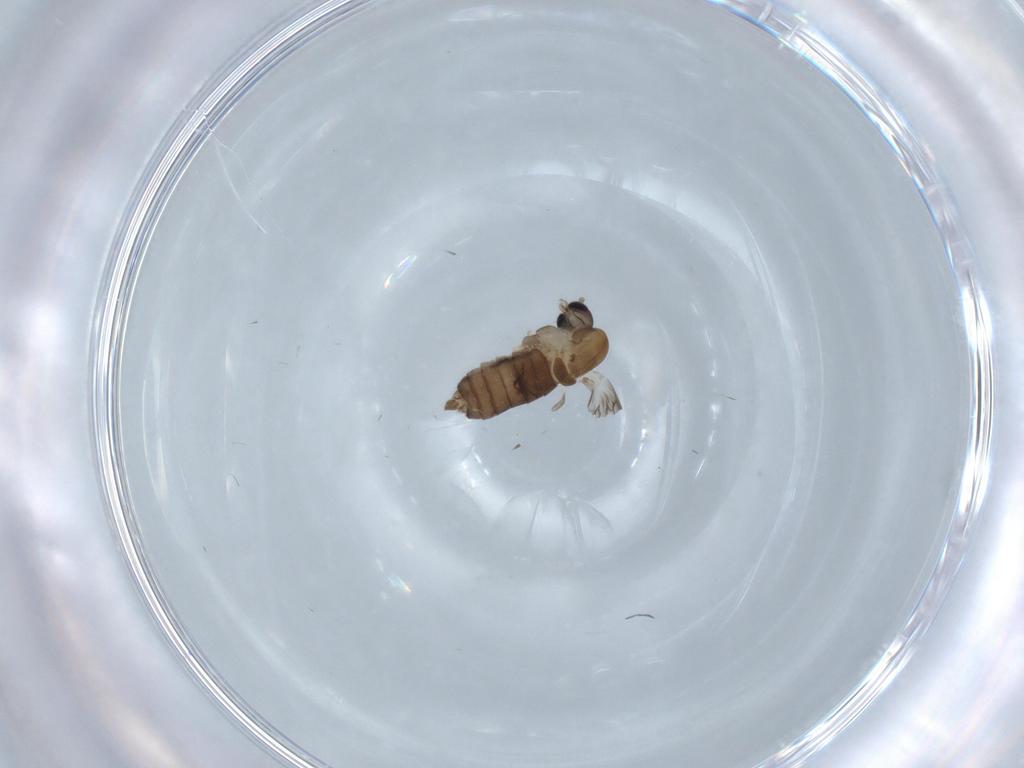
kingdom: Animalia
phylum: Arthropoda
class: Insecta
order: Diptera
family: Psychodidae
